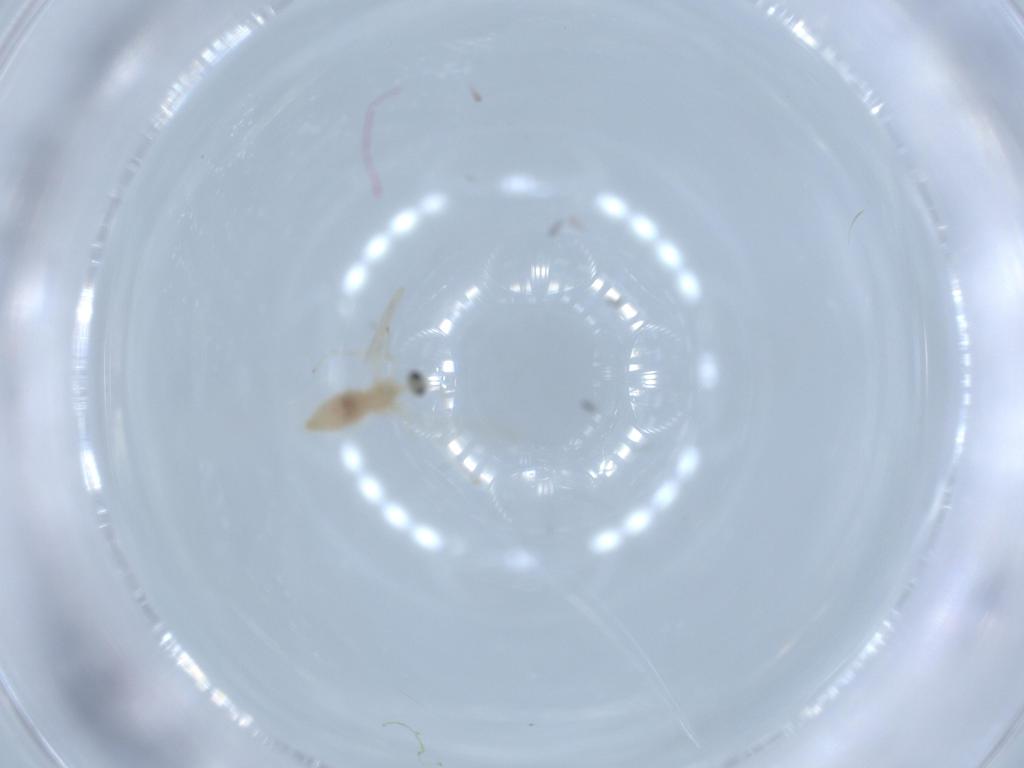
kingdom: Animalia
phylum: Arthropoda
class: Insecta
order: Diptera
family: Cecidomyiidae
